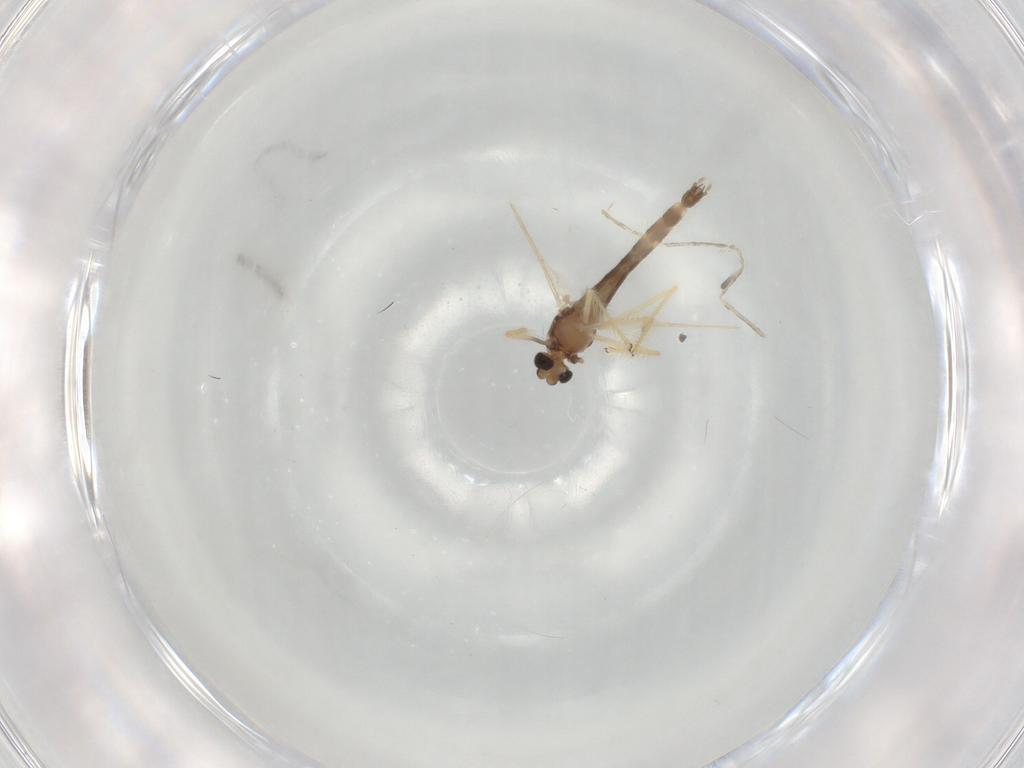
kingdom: Animalia
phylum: Arthropoda
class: Insecta
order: Diptera
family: Chironomidae
